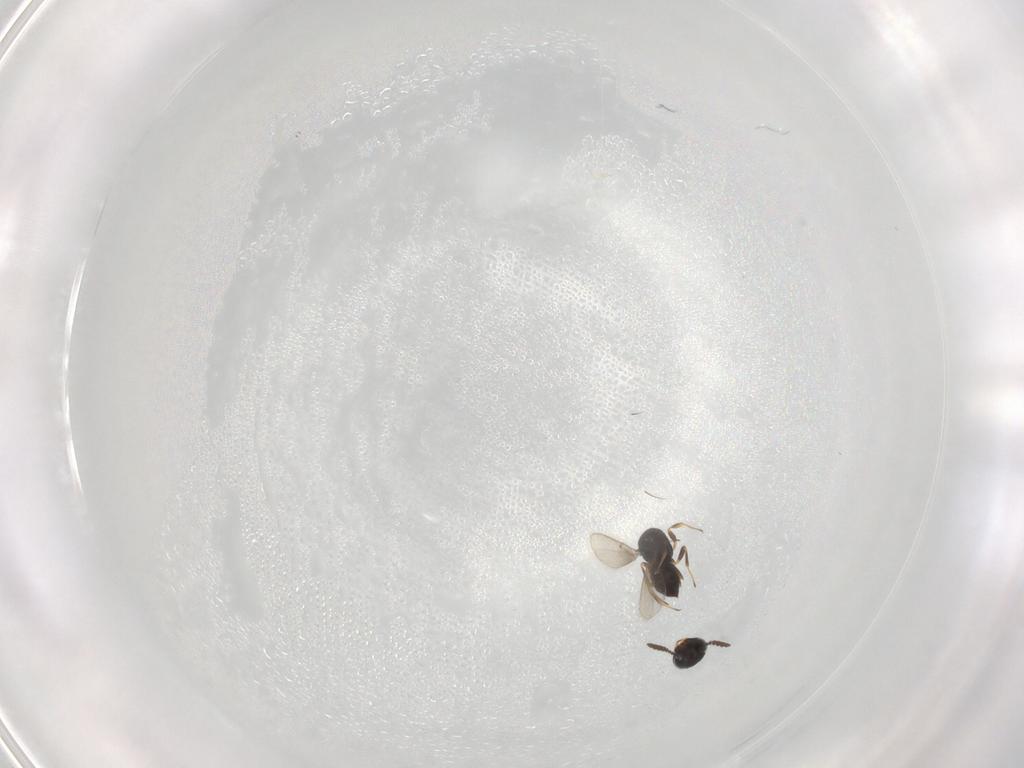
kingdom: Animalia
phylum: Arthropoda
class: Insecta
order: Hymenoptera
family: Scelionidae
